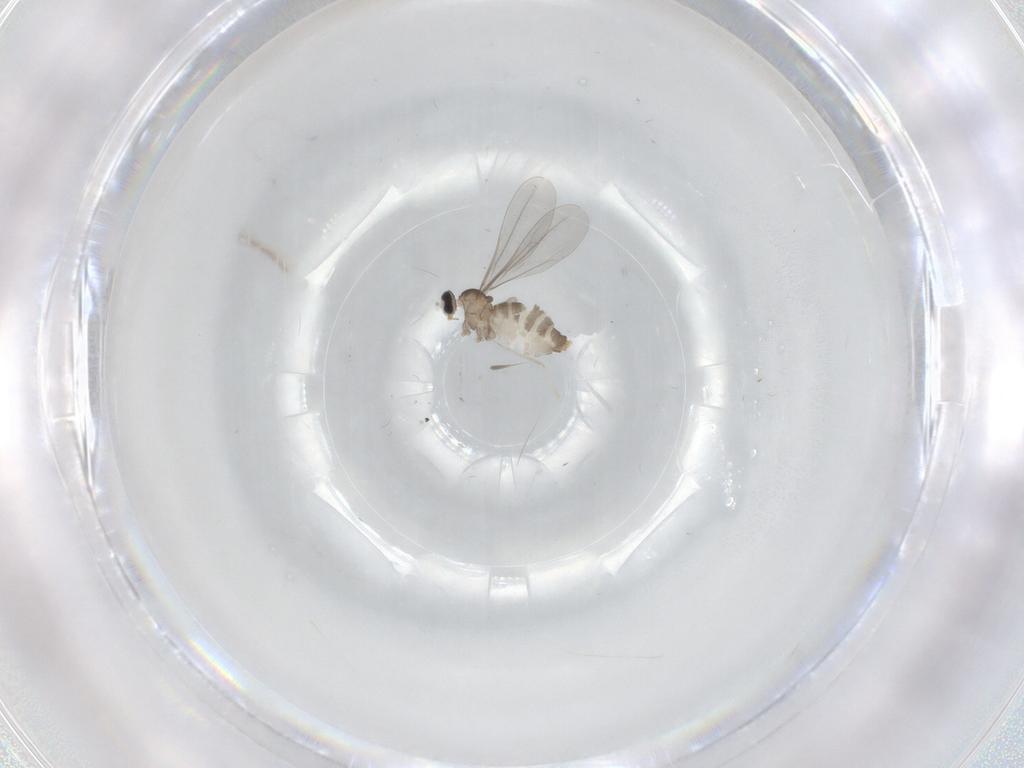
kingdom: Animalia
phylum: Arthropoda
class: Insecta
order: Diptera
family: Cecidomyiidae
